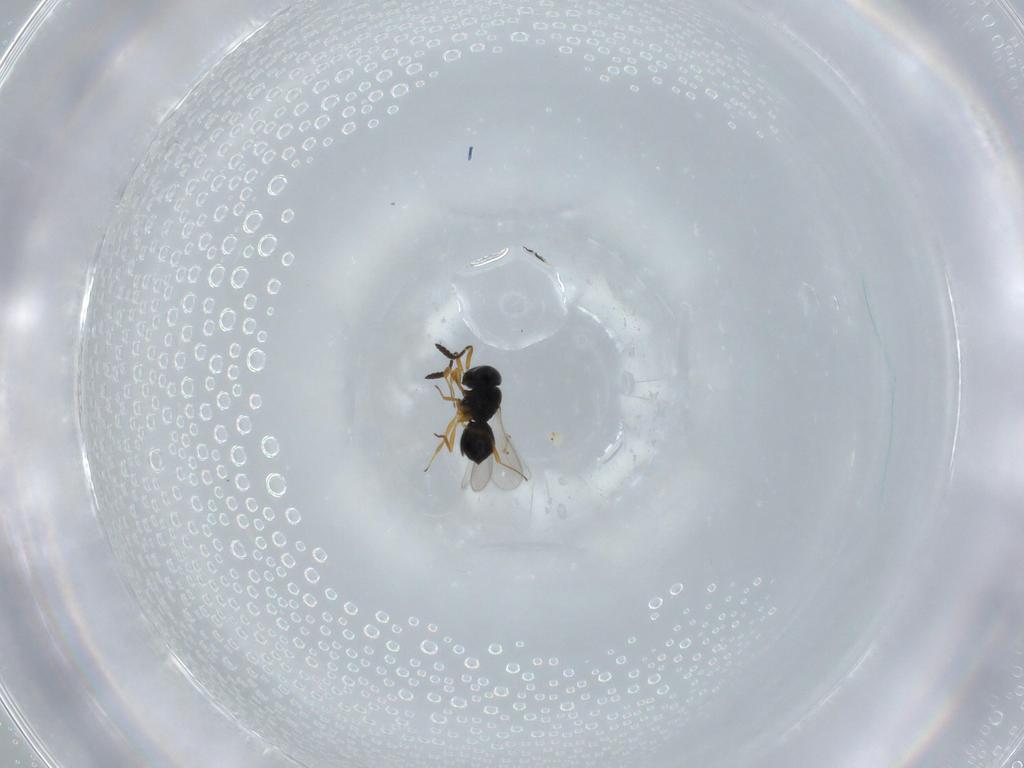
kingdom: Animalia
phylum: Arthropoda
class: Insecta
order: Hymenoptera
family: Scelionidae
